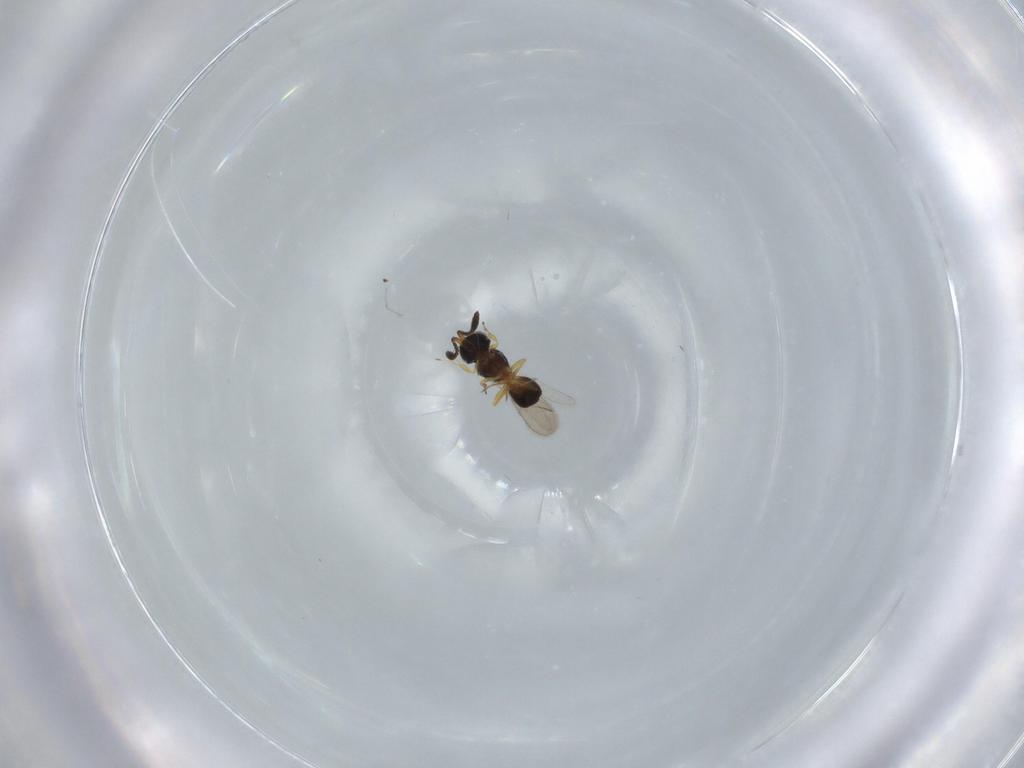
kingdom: Animalia
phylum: Arthropoda
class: Insecta
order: Hymenoptera
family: Scelionidae
